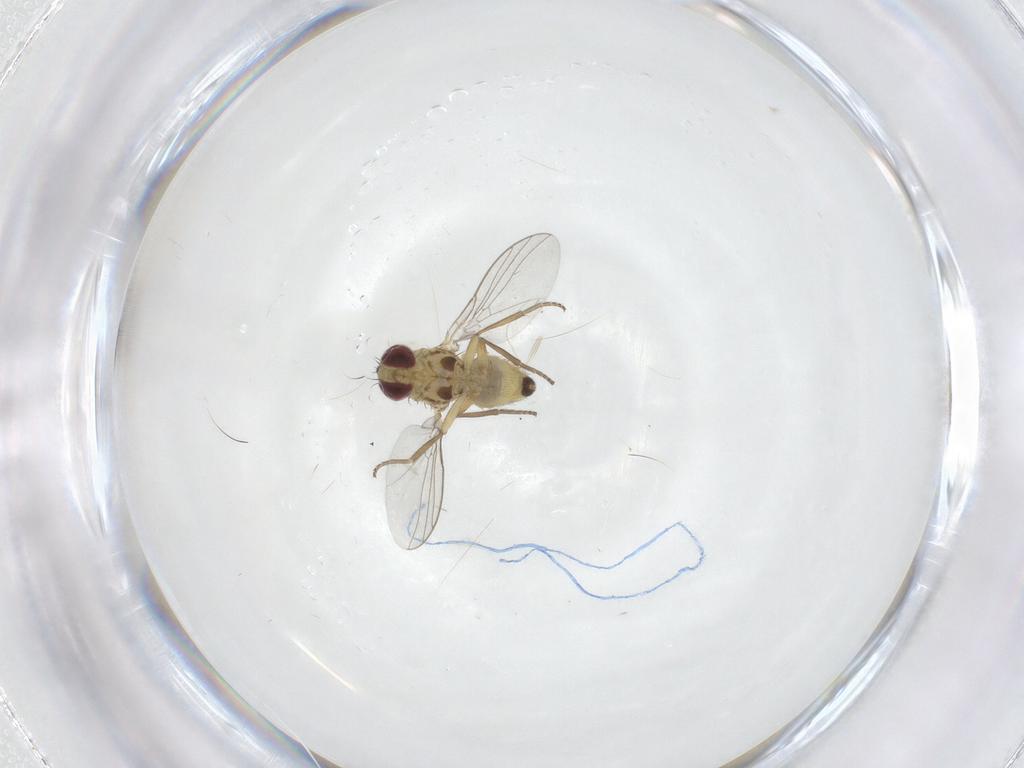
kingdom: Animalia
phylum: Arthropoda
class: Insecta
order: Diptera
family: Agromyzidae
